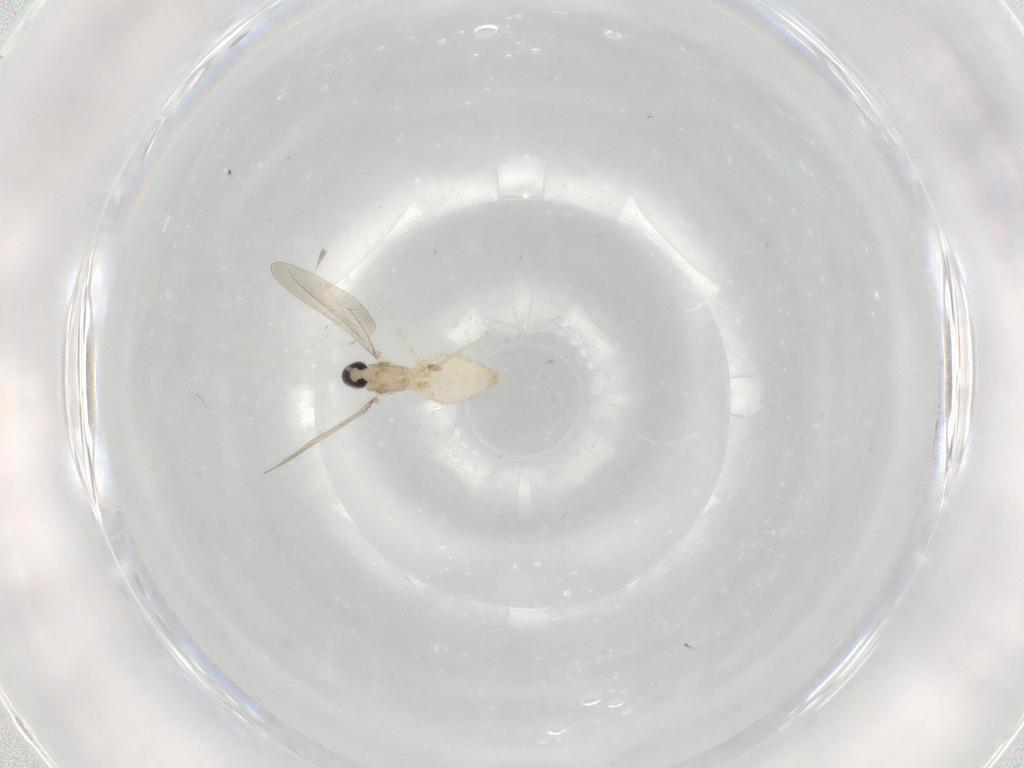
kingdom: Animalia
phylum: Arthropoda
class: Insecta
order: Diptera
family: Cecidomyiidae
